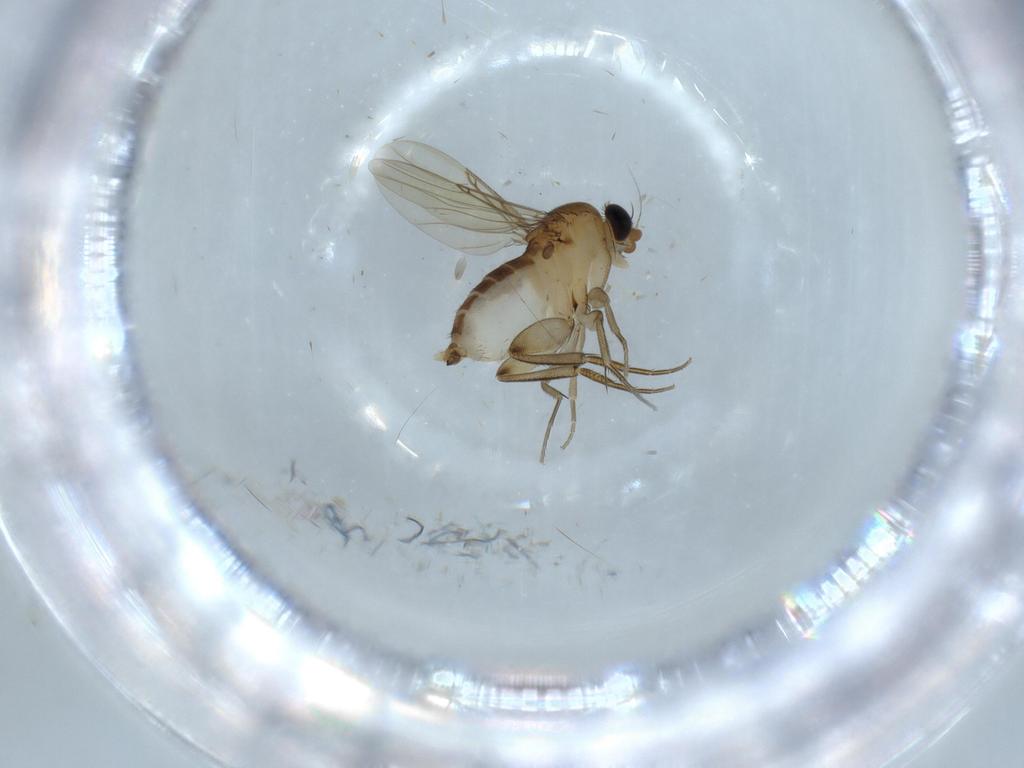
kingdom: Animalia
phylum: Arthropoda
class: Insecta
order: Diptera
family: Phoridae
